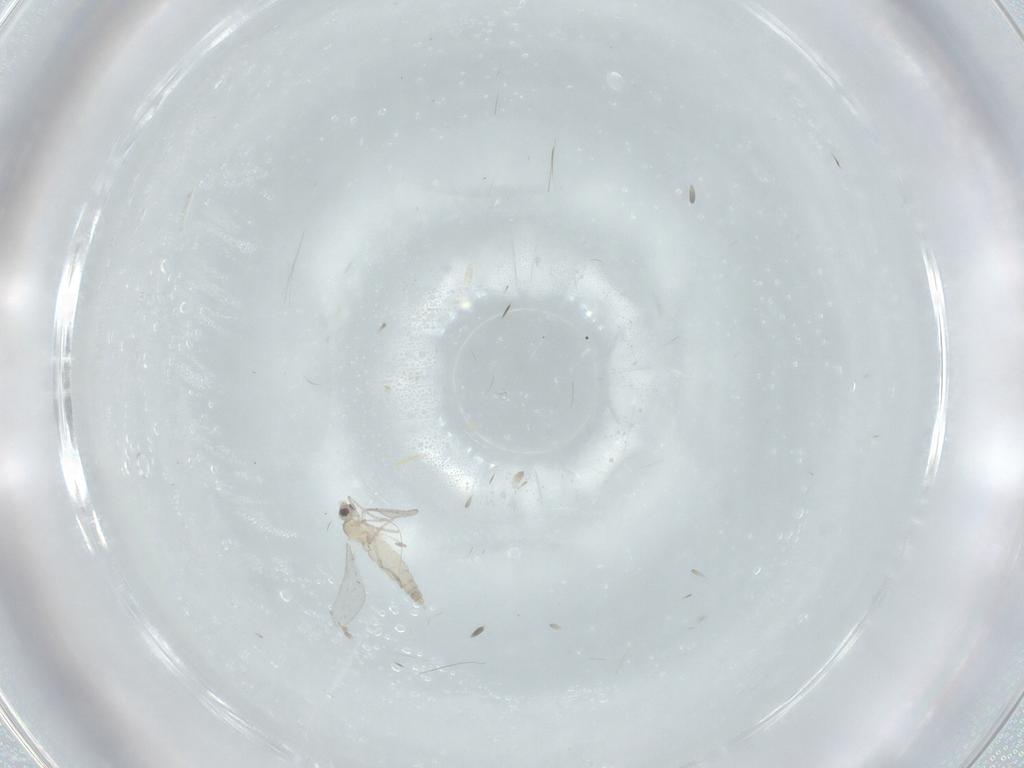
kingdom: Animalia
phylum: Arthropoda
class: Insecta
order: Diptera
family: Cecidomyiidae
